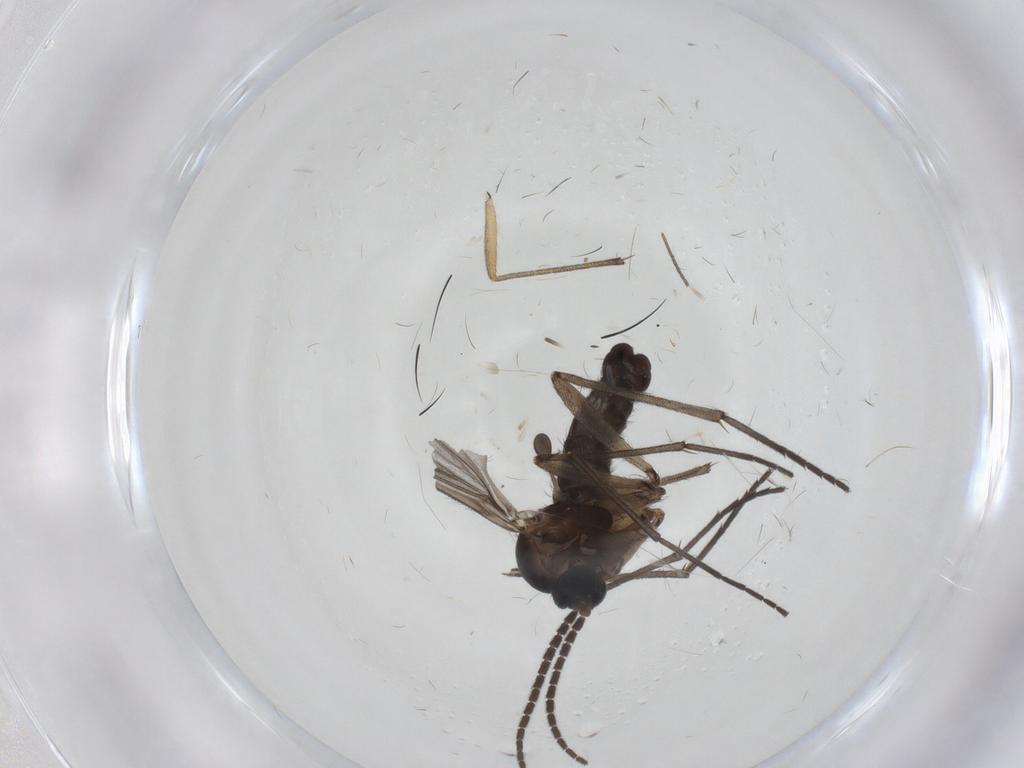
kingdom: Animalia
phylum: Arthropoda
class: Insecta
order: Diptera
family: Sciaridae
